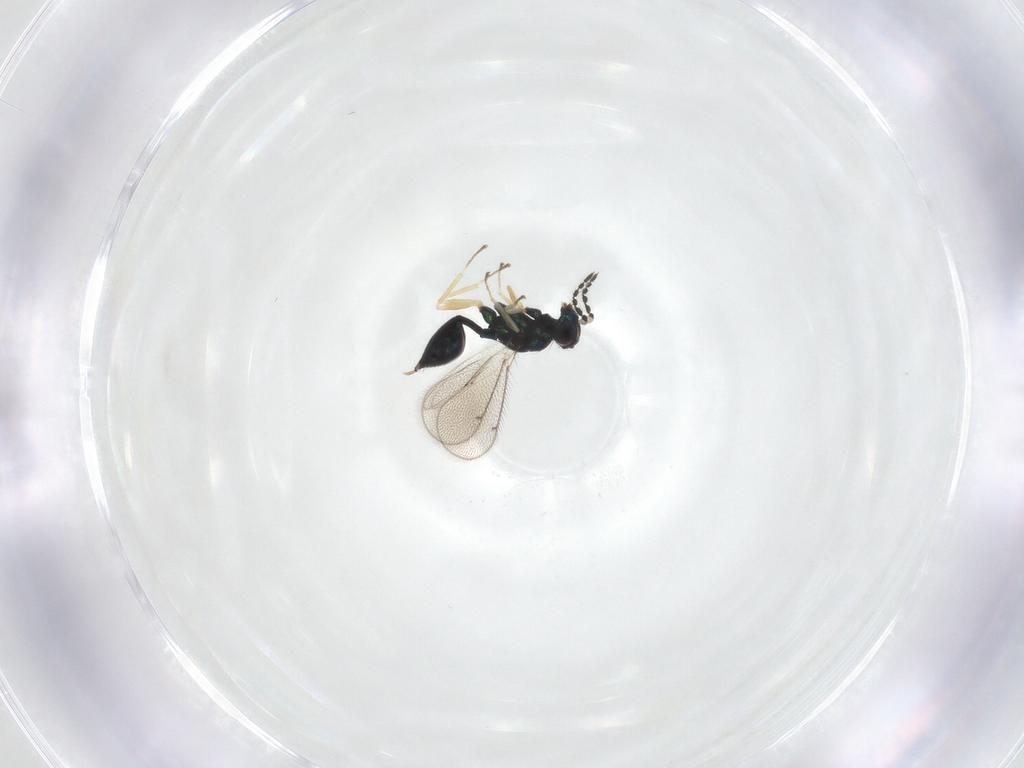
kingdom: Animalia
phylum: Arthropoda
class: Insecta
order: Hymenoptera
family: Eulophidae
